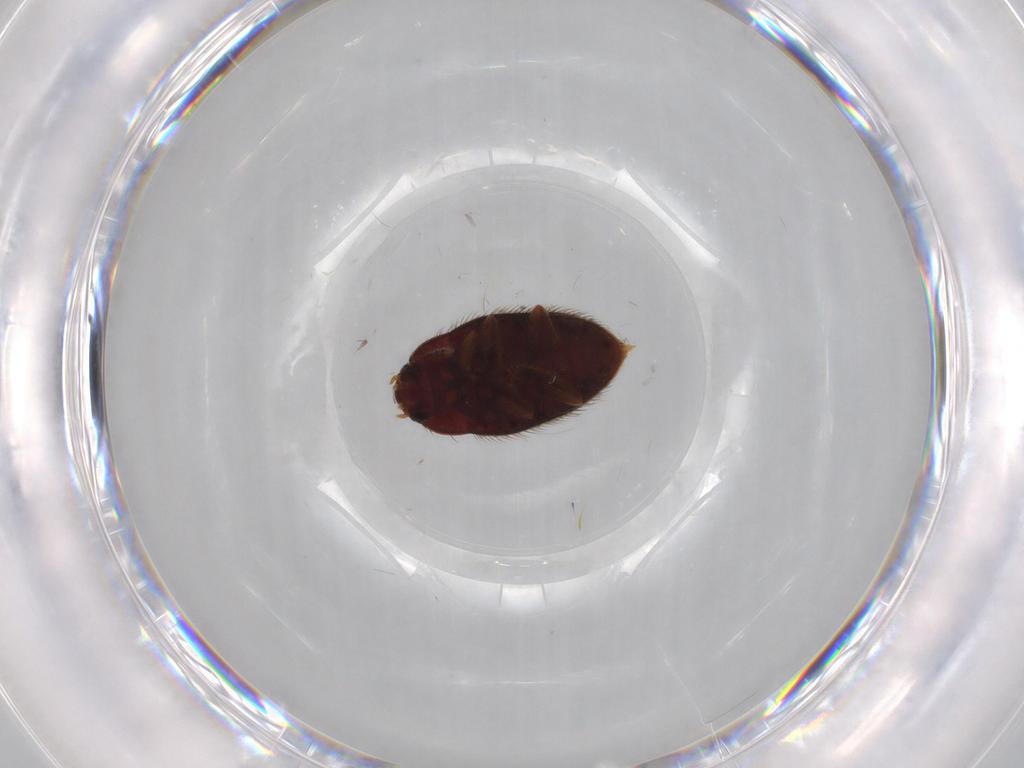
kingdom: Animalia
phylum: Arthropoda
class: Insecta
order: Coleoptera
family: Biphyllidae
